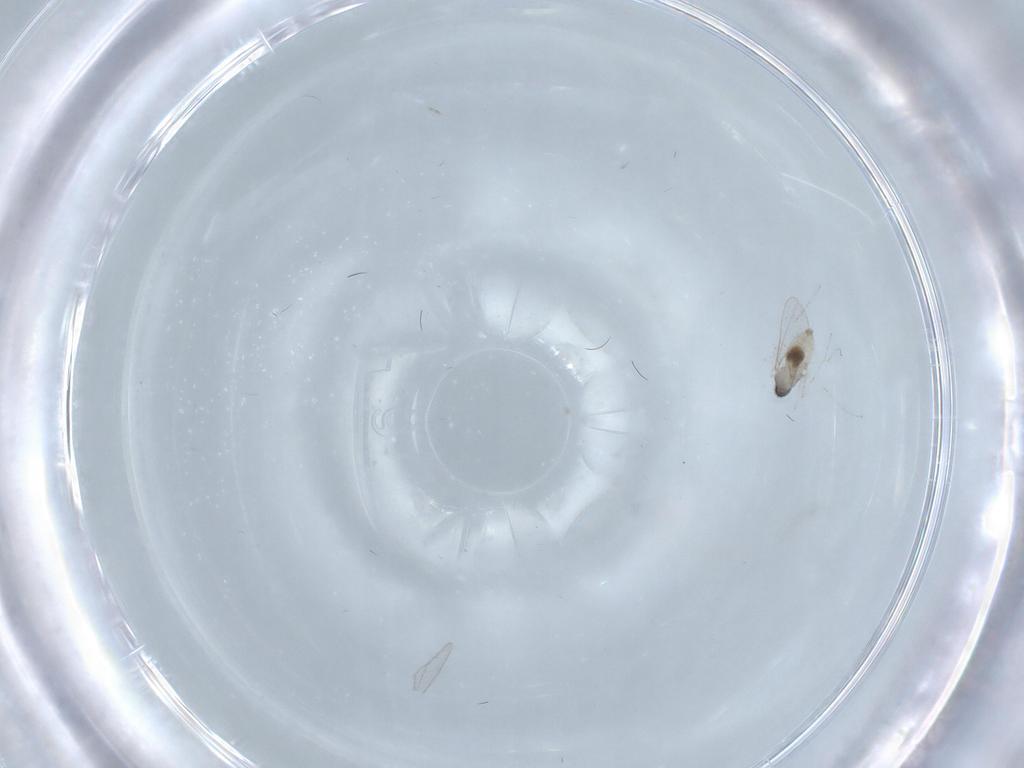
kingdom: Animalia
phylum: Arthropoda
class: Insecta
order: Diptera
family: Cecidomyiidae
